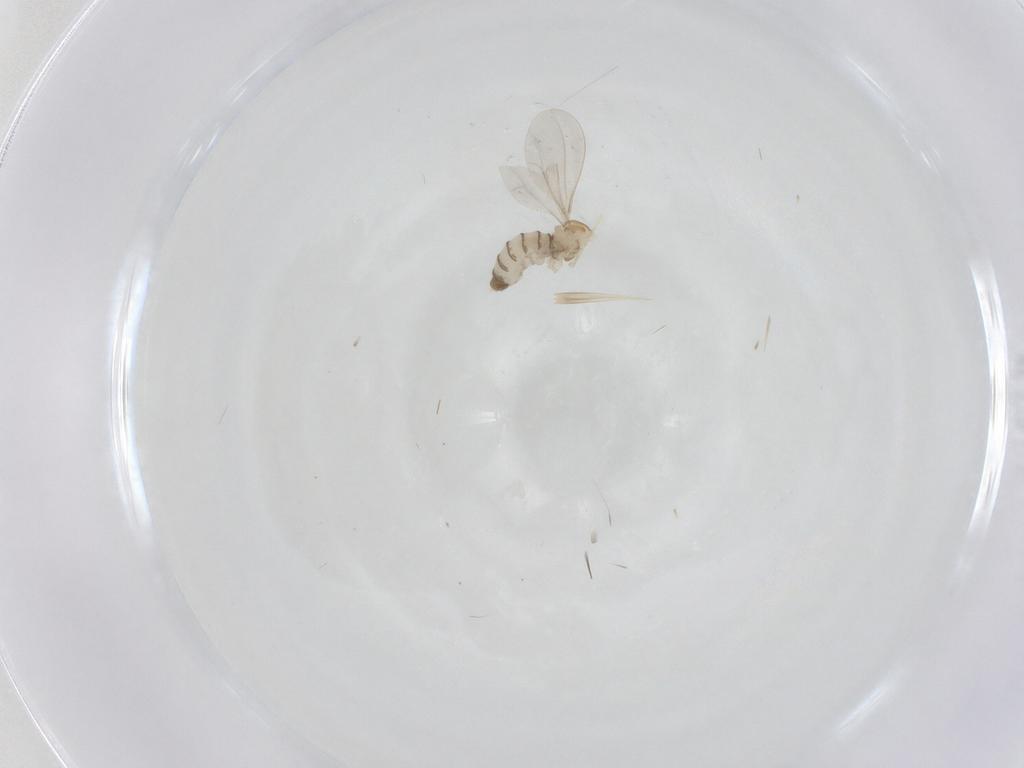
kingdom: Animalia
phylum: Arthropoda
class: Insecta
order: Diptera
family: Cecidomyiidae
